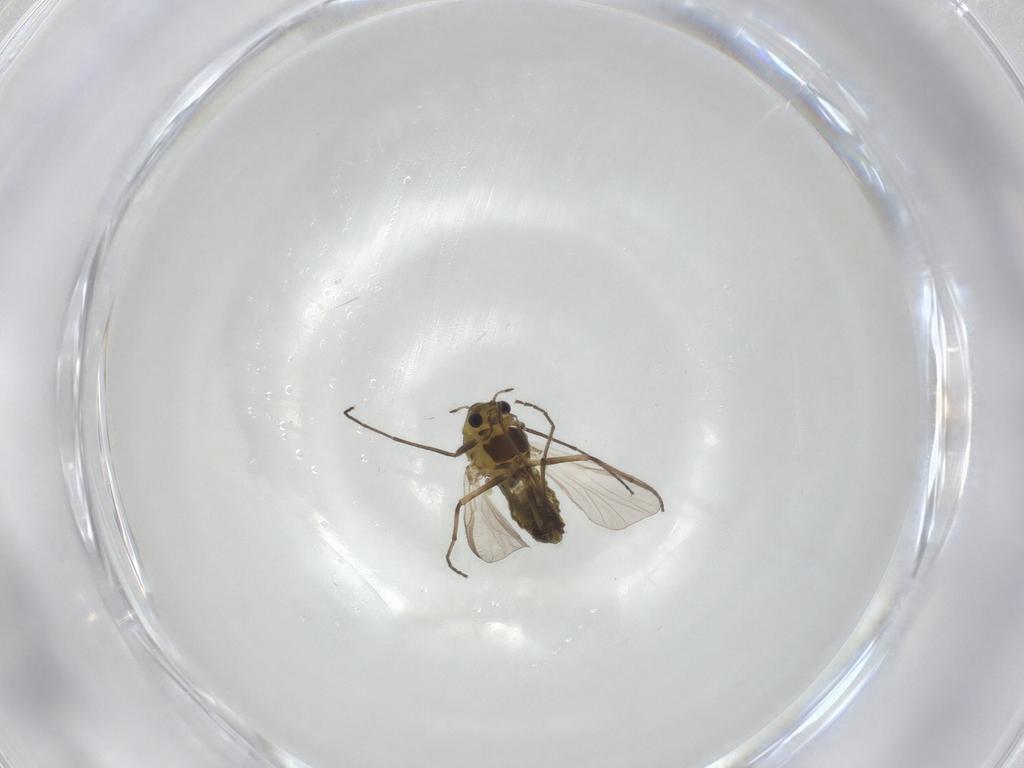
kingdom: Animalia
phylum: Arthropoda
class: Insecta
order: Diptera
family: Chironomidae
